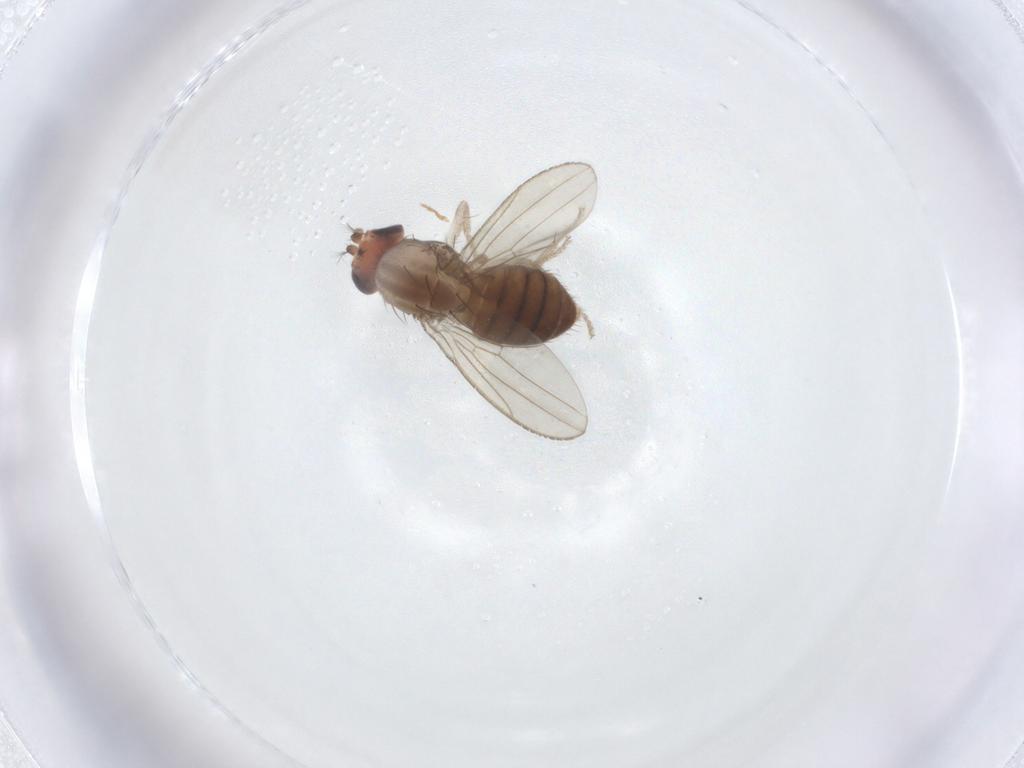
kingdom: Animalia
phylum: Arthropoda
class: Insecta
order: Diptera
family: Drosophilidae
